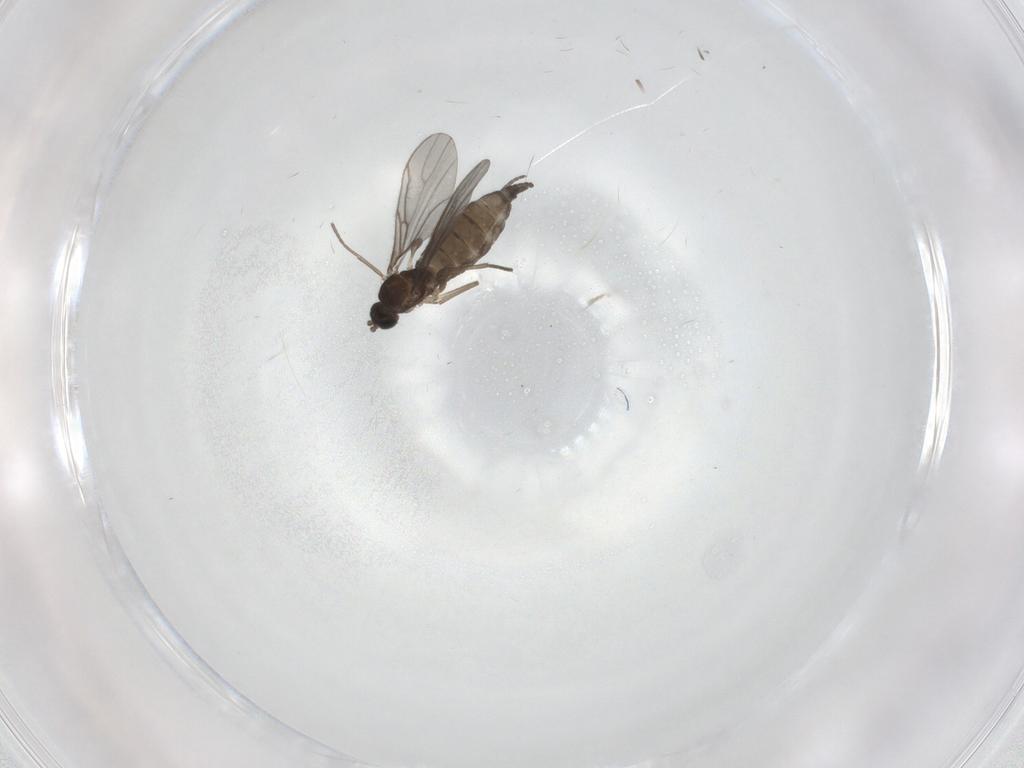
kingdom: Animalia
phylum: Arthropoda
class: Insecta
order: Diptera
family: Sciaridae
